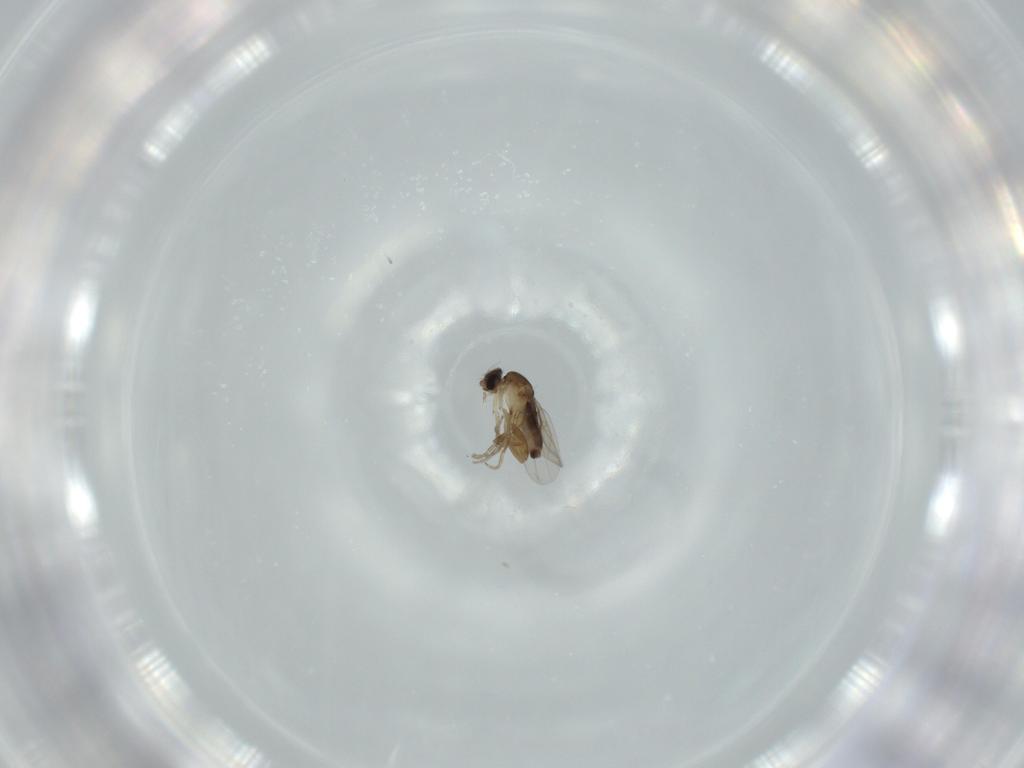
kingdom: Animalia
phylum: Arthropoda
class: Insecta
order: Diptera
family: Phoridae
